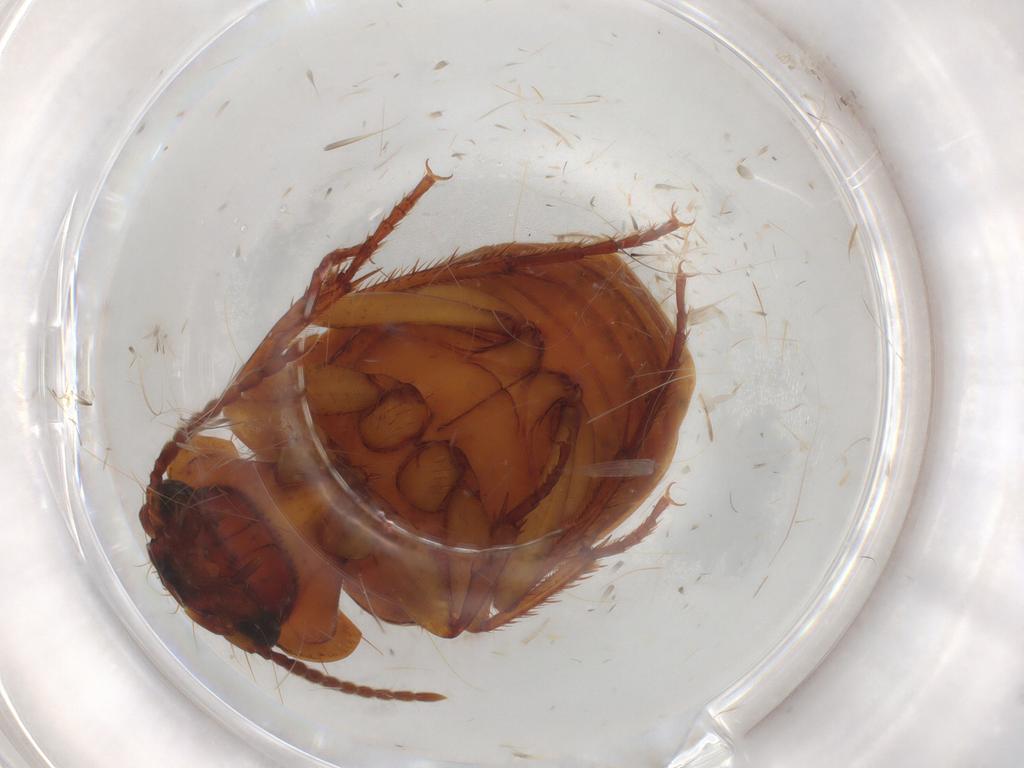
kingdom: Animalia
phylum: Arthropoda
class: Insecta
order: Coleoptera
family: Carabidae
